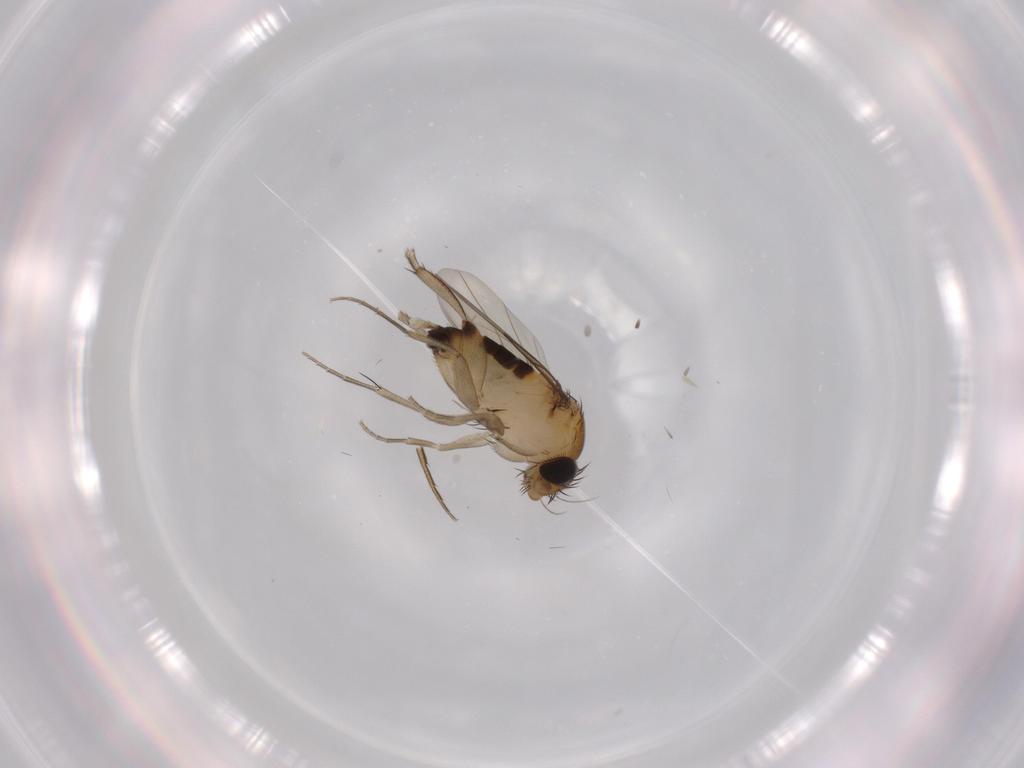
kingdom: Animalia
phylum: Arthropoda
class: Insecta
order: Diptera
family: Phoridae
